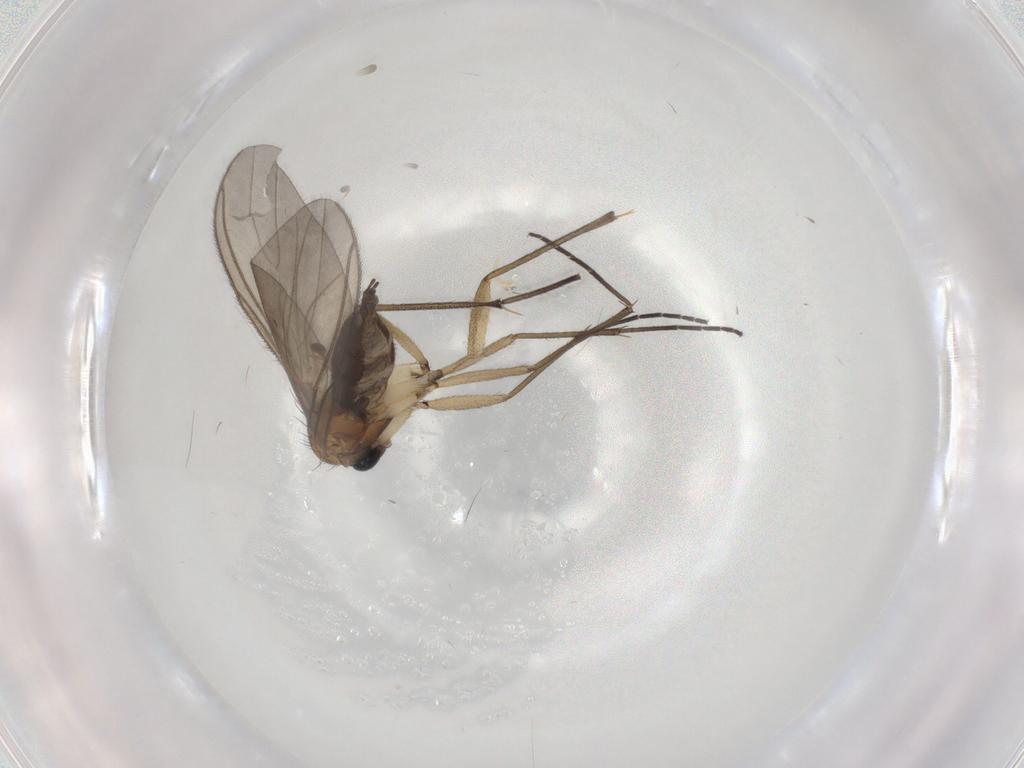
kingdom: Animalia
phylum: Arthropoda
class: Insecta
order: Diptera
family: Sciaridae
